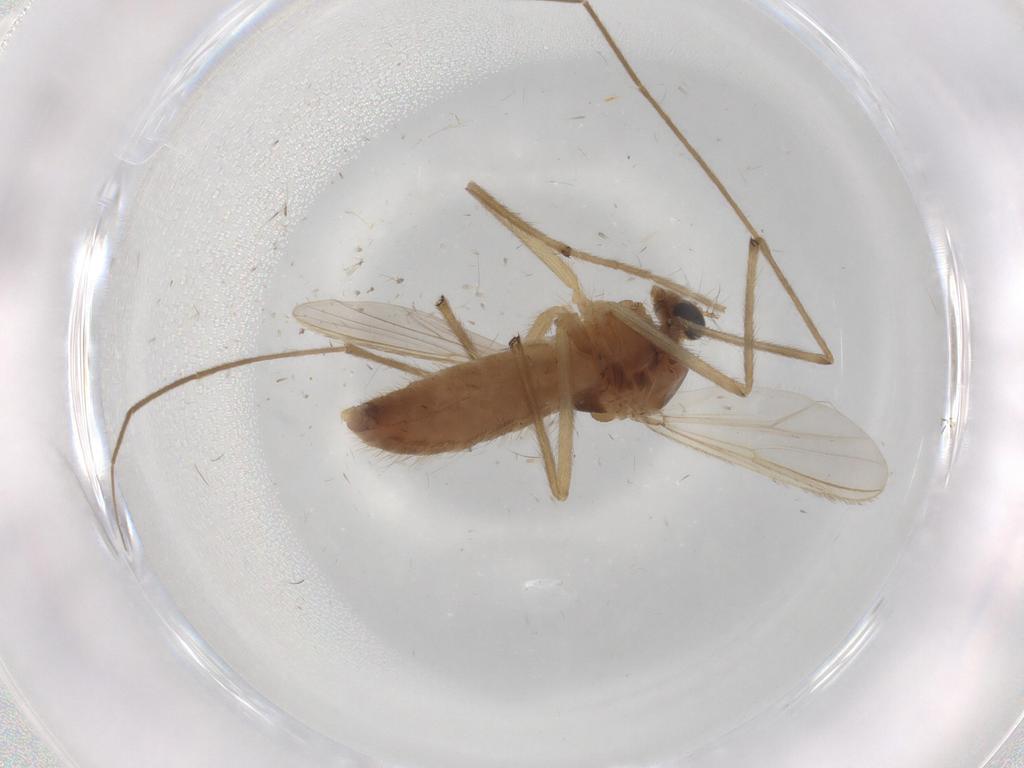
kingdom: Animalia
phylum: Arthropoda
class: Insecta
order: Diptera
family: Chironomidae
